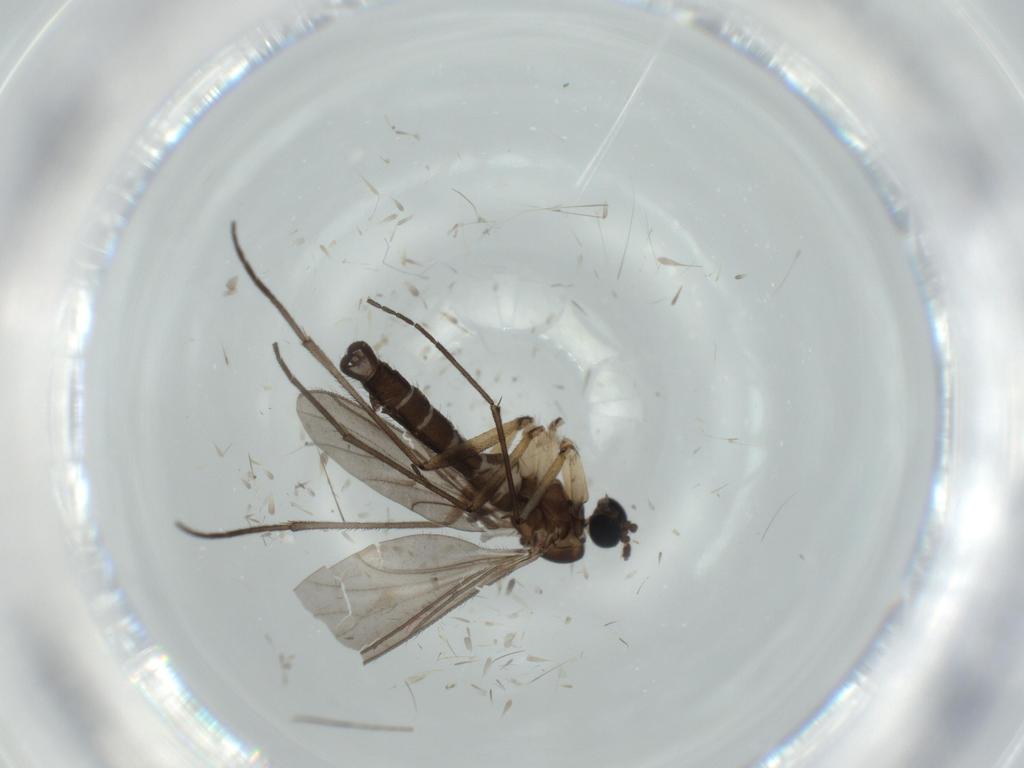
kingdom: Animalia
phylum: Arthropoda
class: Insecta
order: Diptera
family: Sciaridae
